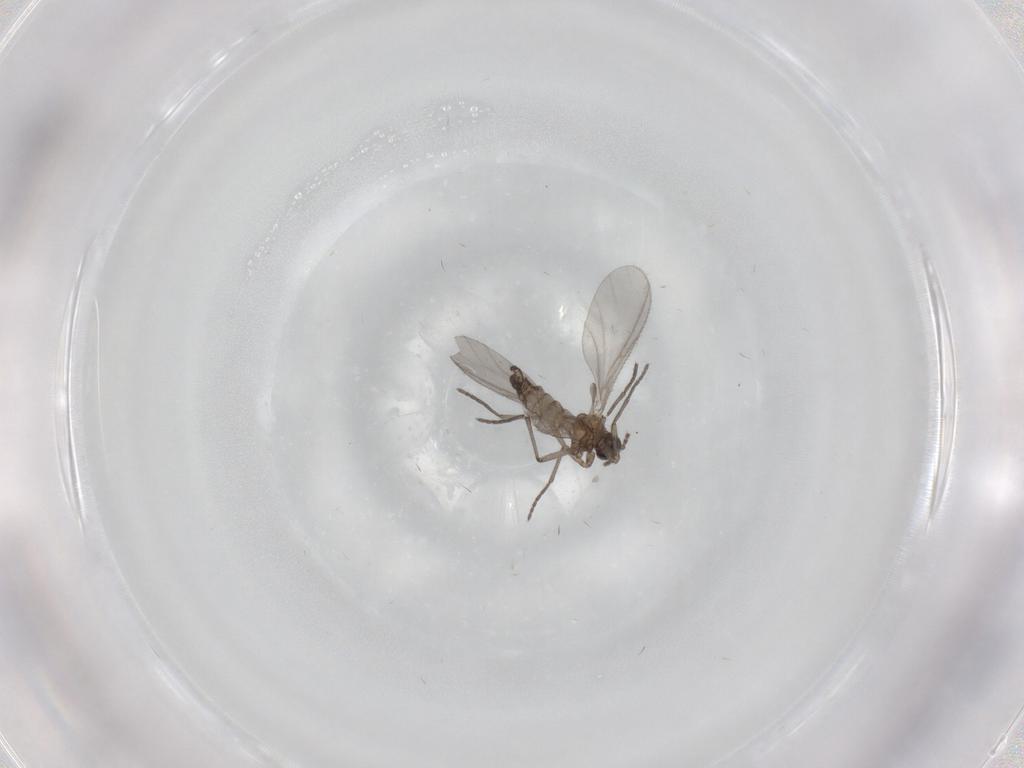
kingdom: Animalia
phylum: Arthropoda
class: Insecta
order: Diptera
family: Sciaridae
